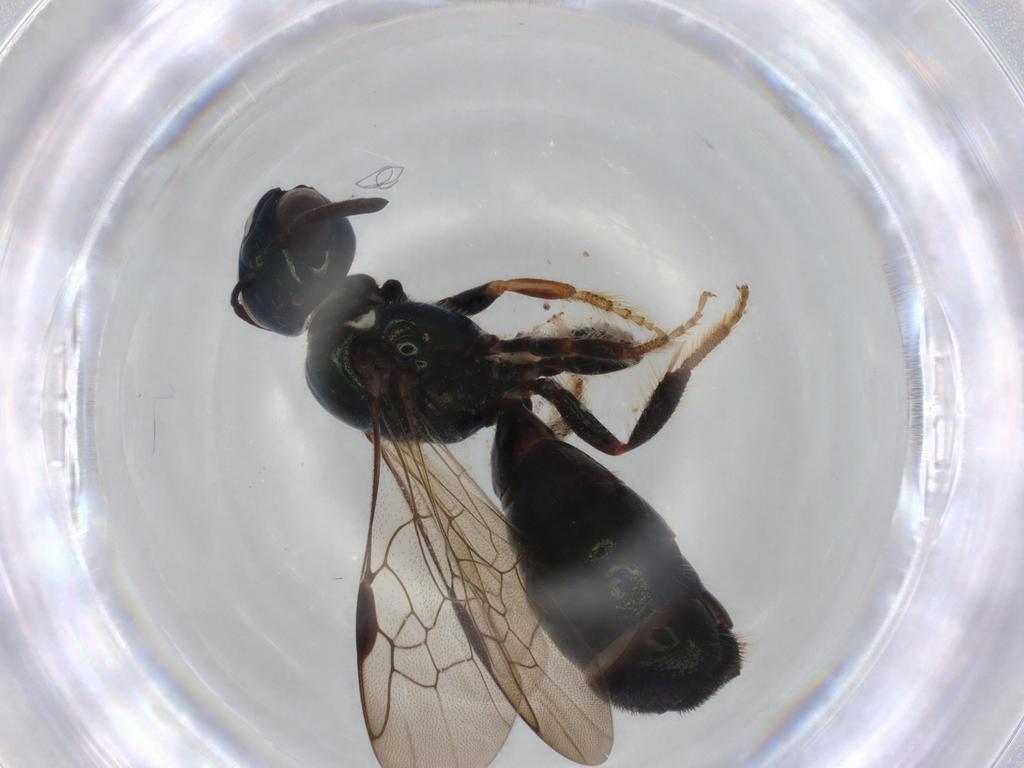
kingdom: Animalia
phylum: Arthropoda
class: Insecta
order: Hymenoptera
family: Apidae
